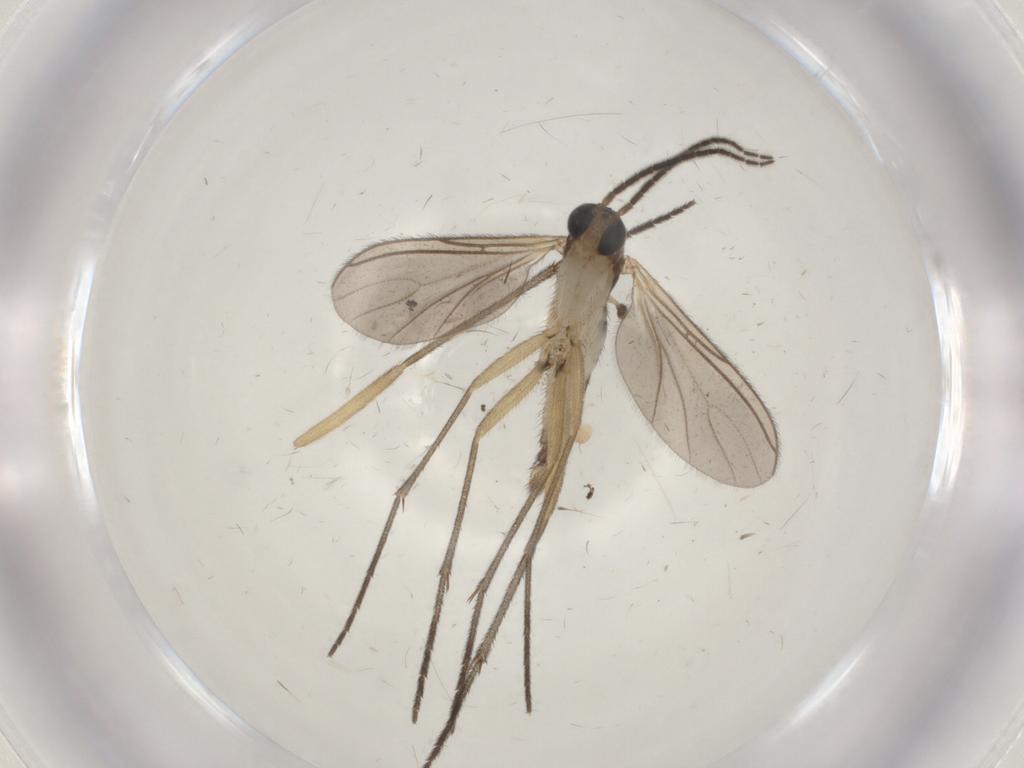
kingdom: Animalia
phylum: Arthropoda
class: Insecta
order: Diptera
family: Sciaridae
